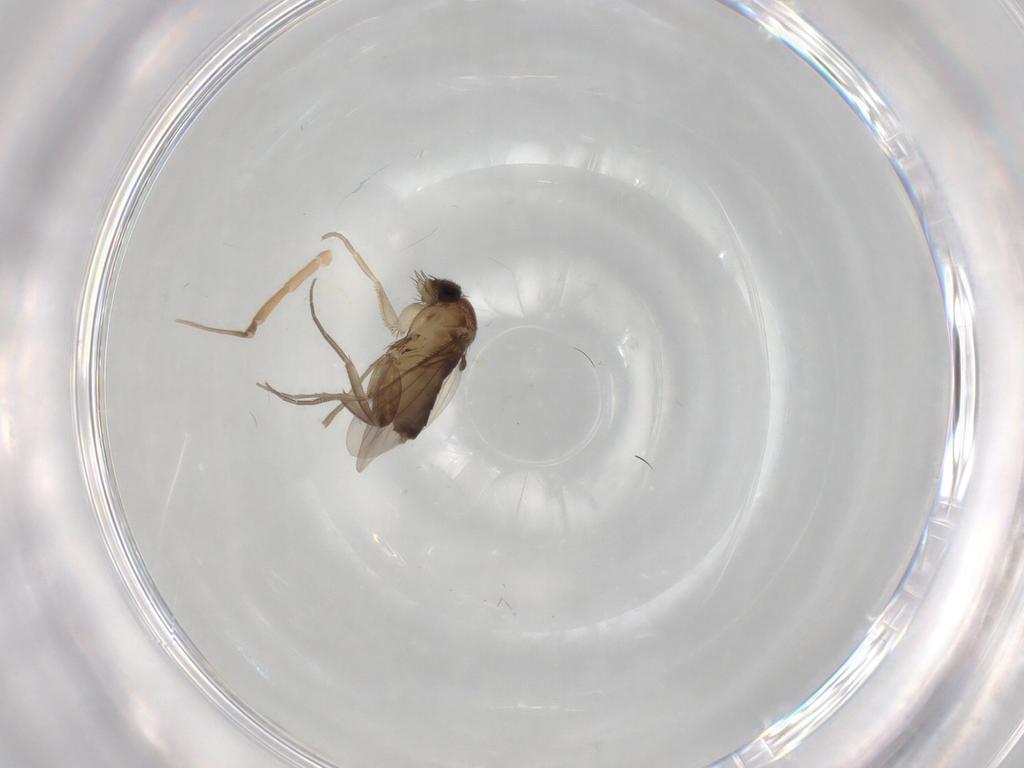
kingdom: Animalia
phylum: Arthropoda
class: Insecta
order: Diptera
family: Phoridae
